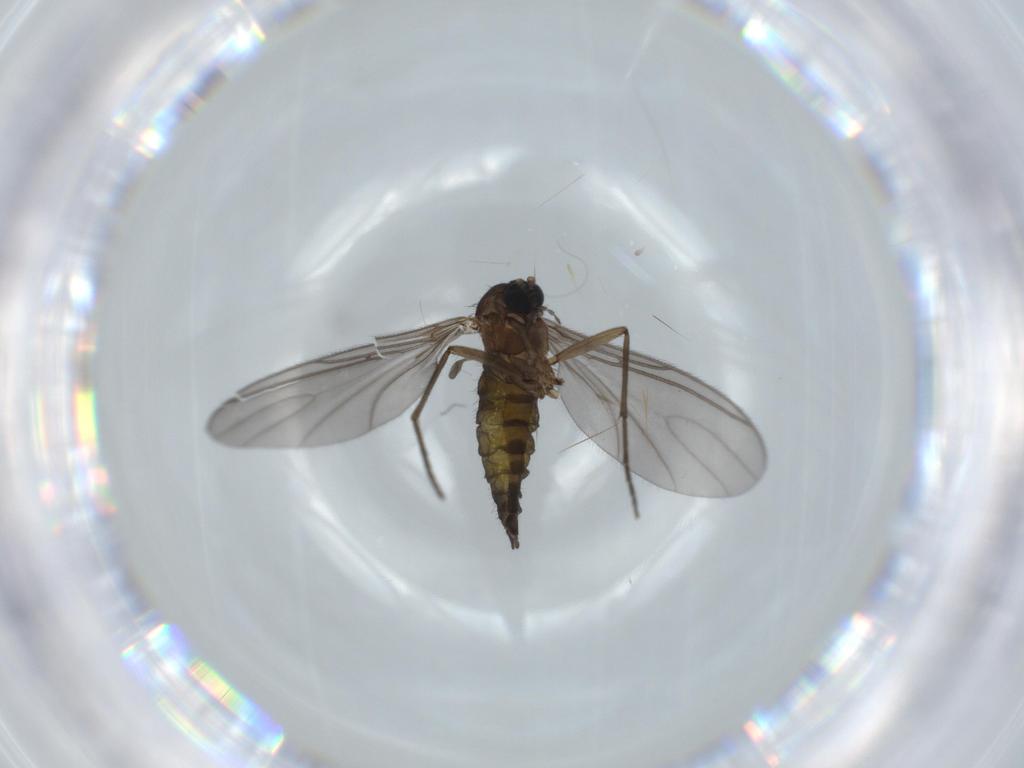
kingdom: Animalia
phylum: Arthropoda
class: Insecta
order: Diptera
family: Sciaridae
